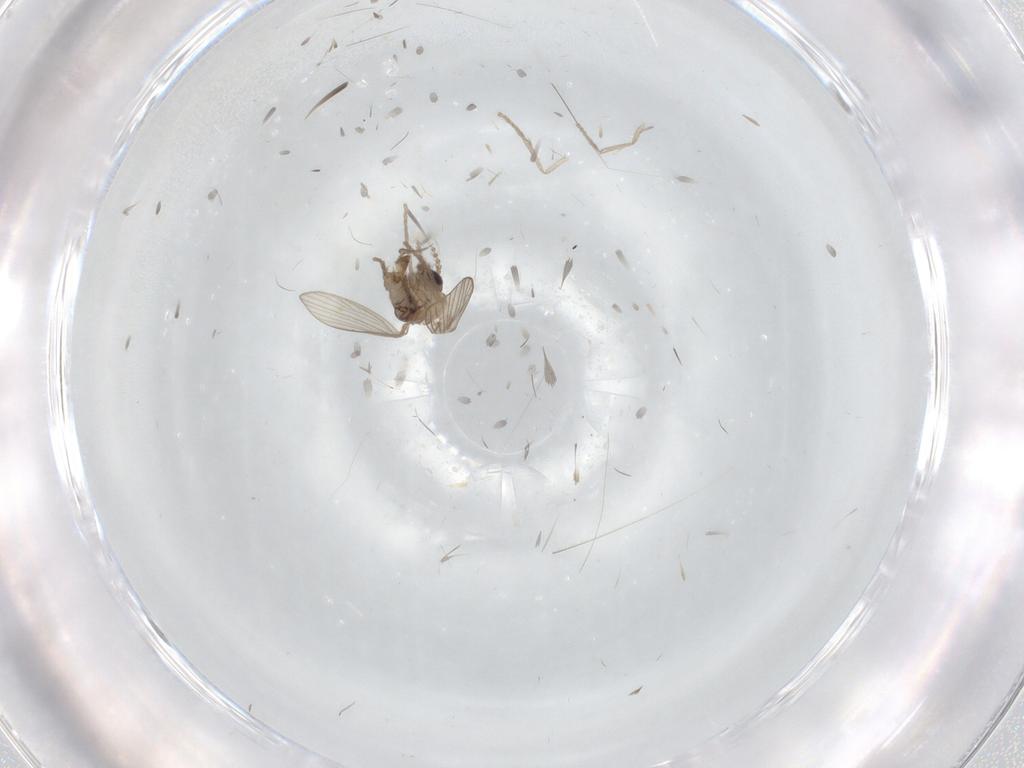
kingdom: Animalia
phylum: Arthropoda
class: Insecta
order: Diptera
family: Psychodidae
